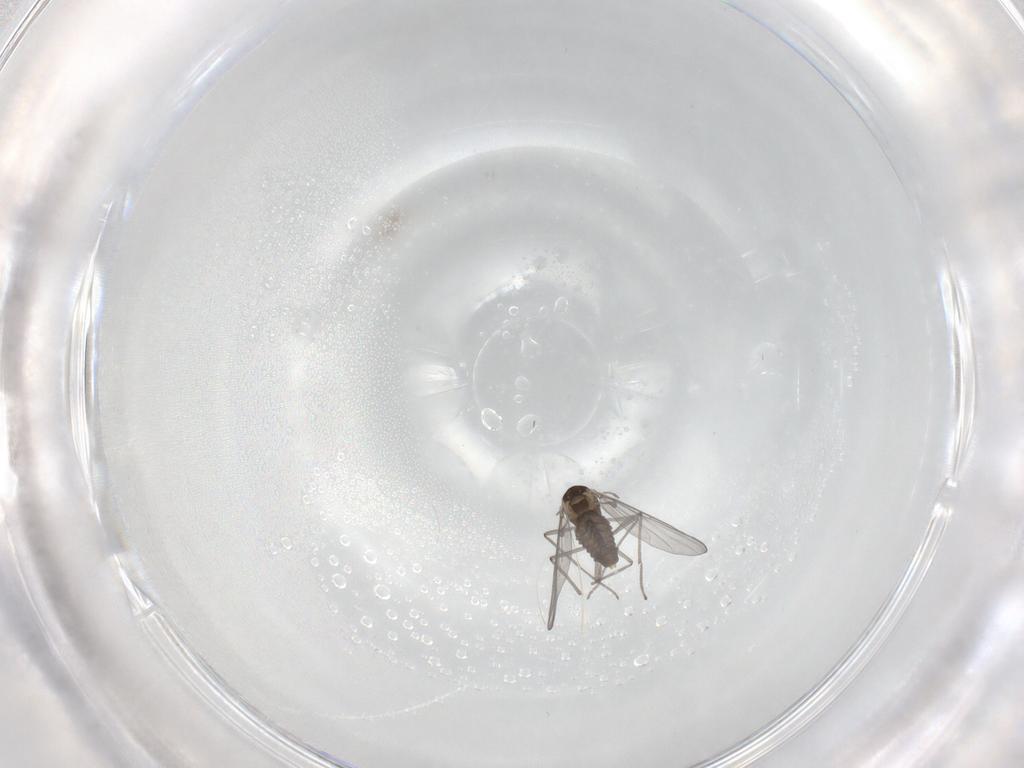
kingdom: Animalia
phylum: Arthropoda
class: Insecta
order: Diptera
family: Chironomidae
